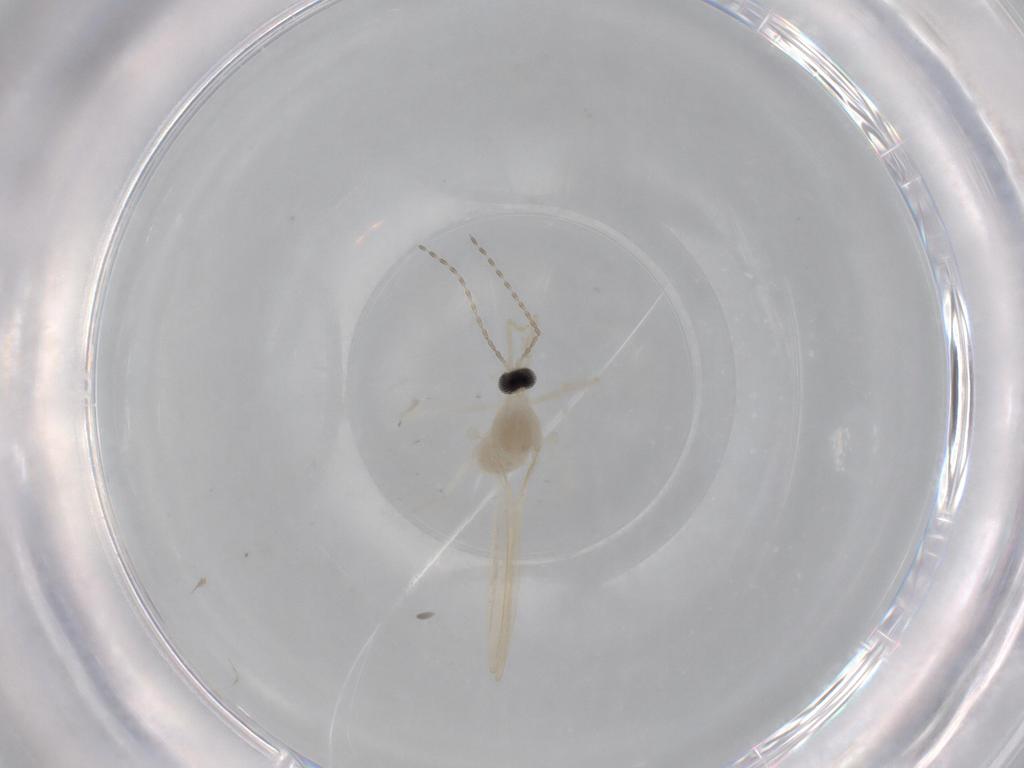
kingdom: Animalia
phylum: Arthropoda
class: Insecta
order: Diptera
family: Cecidomyiidae
